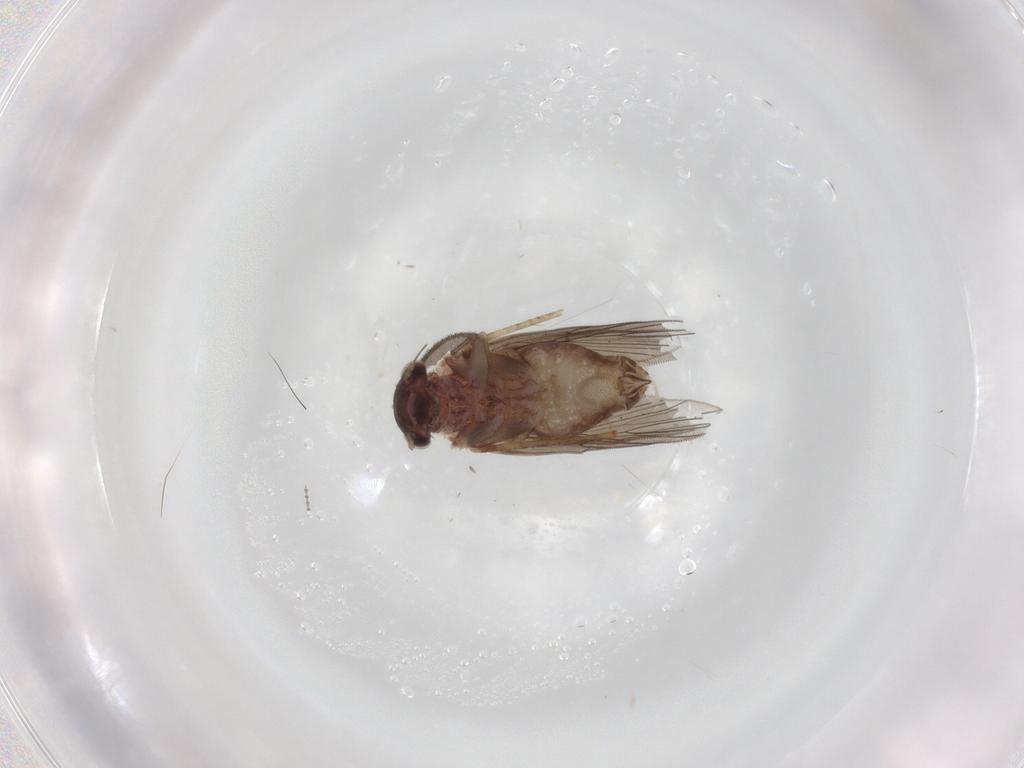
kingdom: Animalia
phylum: Arthropoda
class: Insecta
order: Psocodea
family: Lepidopsocidae
